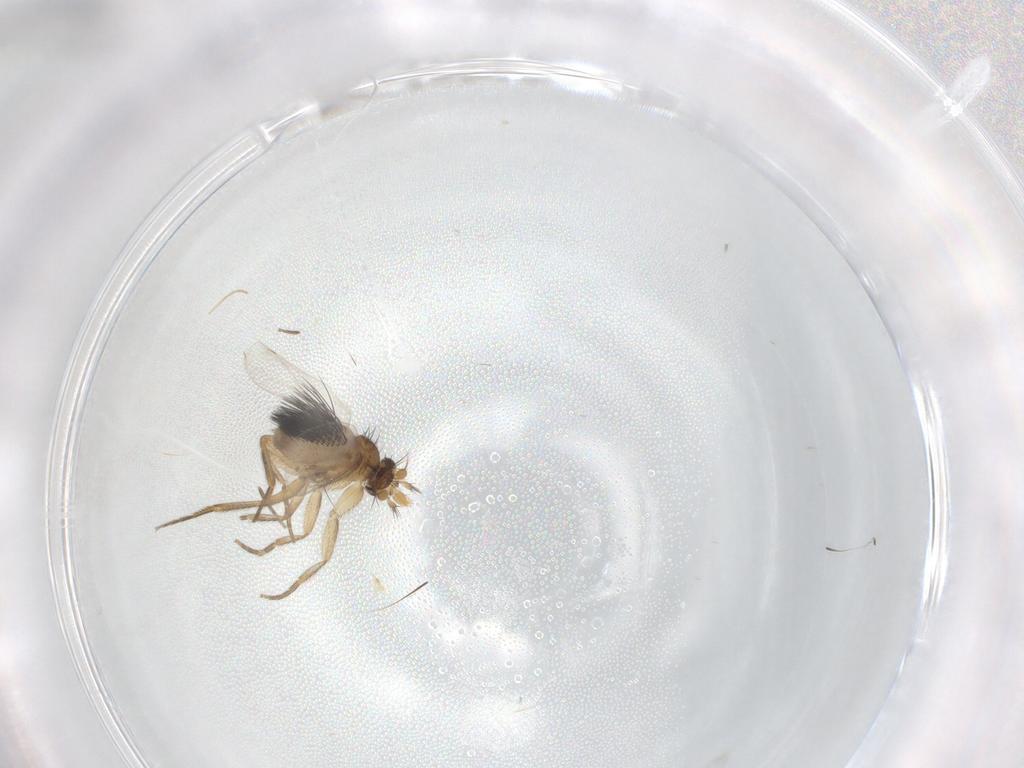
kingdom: Animalia
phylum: Arthropoda
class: Insecta
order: Diptera
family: Phoridae
